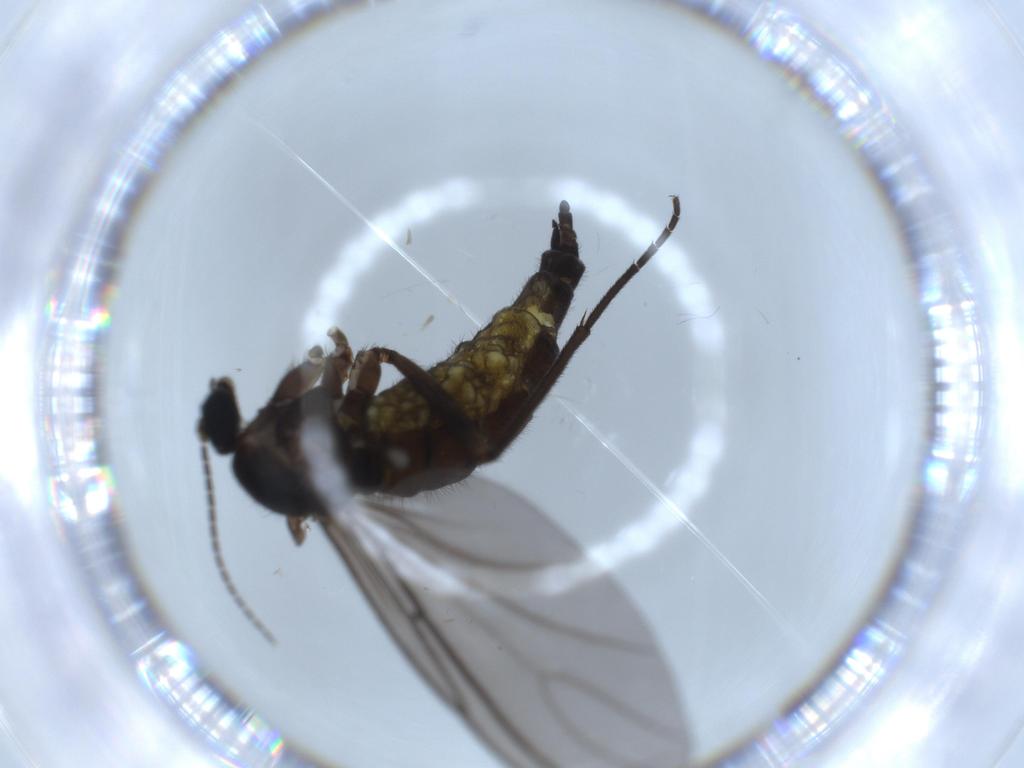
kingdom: Animalia
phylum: Arthropoda
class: Insecta
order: Diptera
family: Sciaridae
